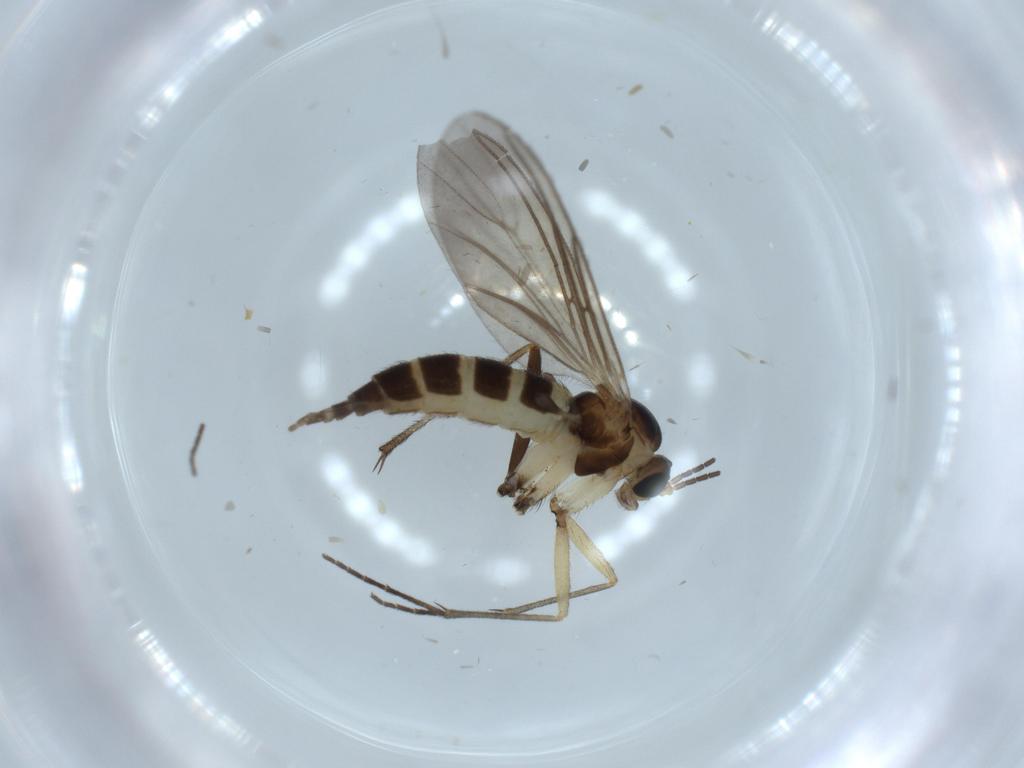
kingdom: Animalia
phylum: Arthropoda
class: Insecta
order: Diptera
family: Sciaridae
